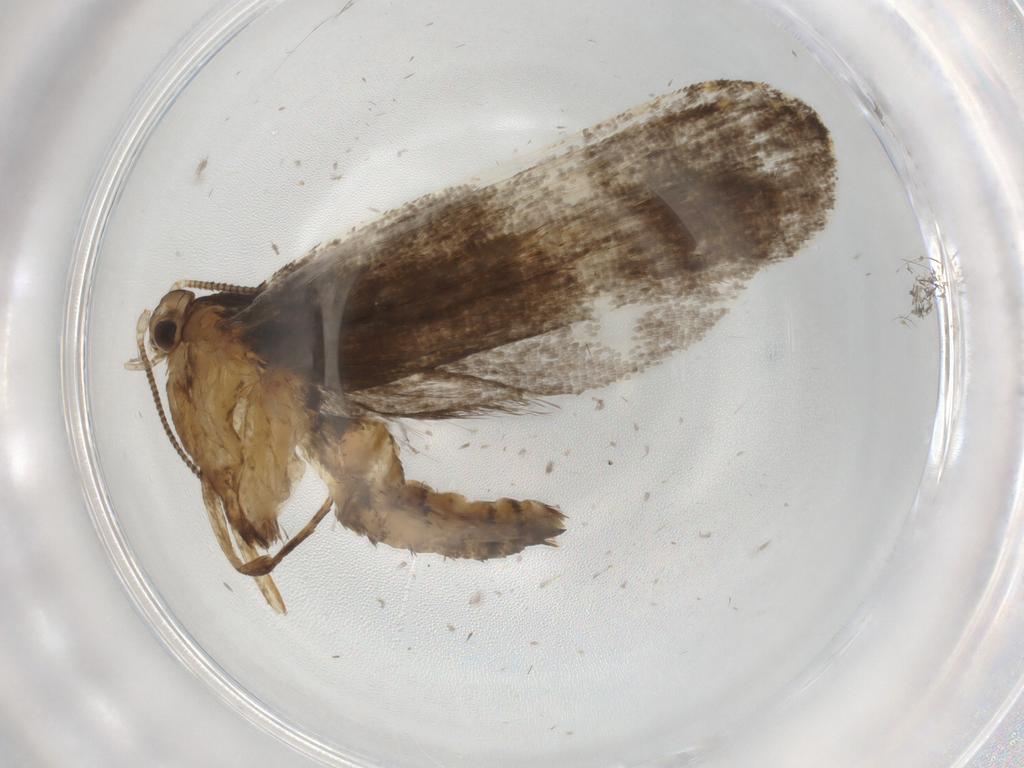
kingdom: Animalia
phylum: Arthropoda
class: Insecta
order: Lepidoptera
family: Tineidae
